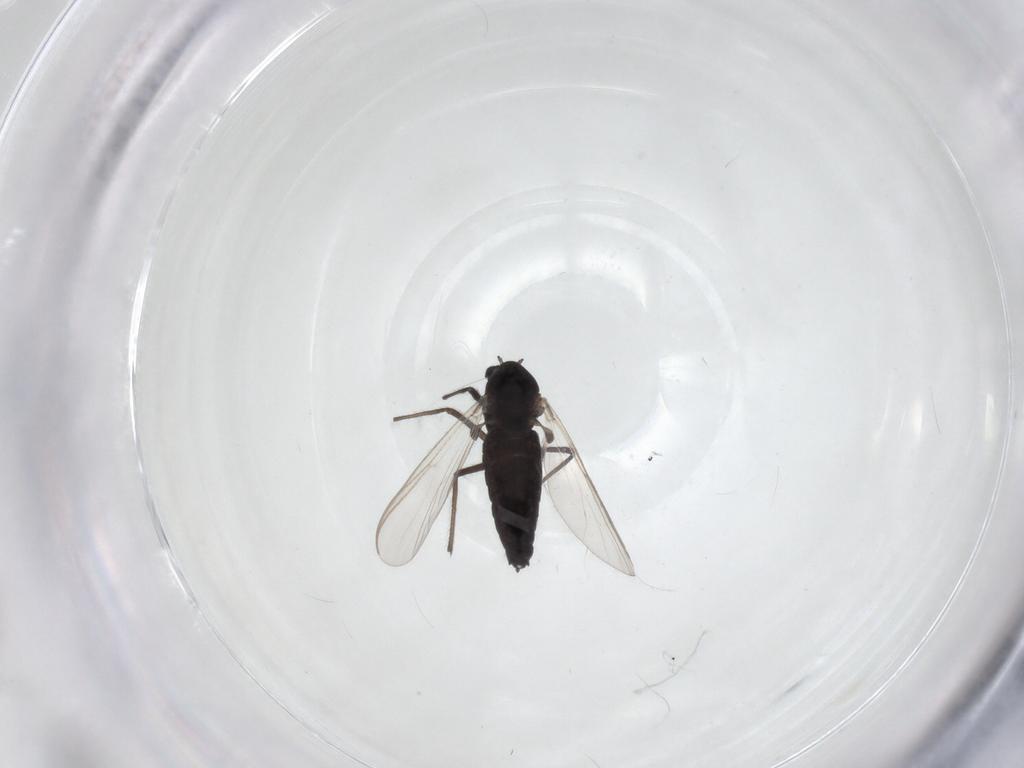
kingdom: Animalia
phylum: Arthropoda
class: Insecta
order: Diptera
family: Chironomidae
